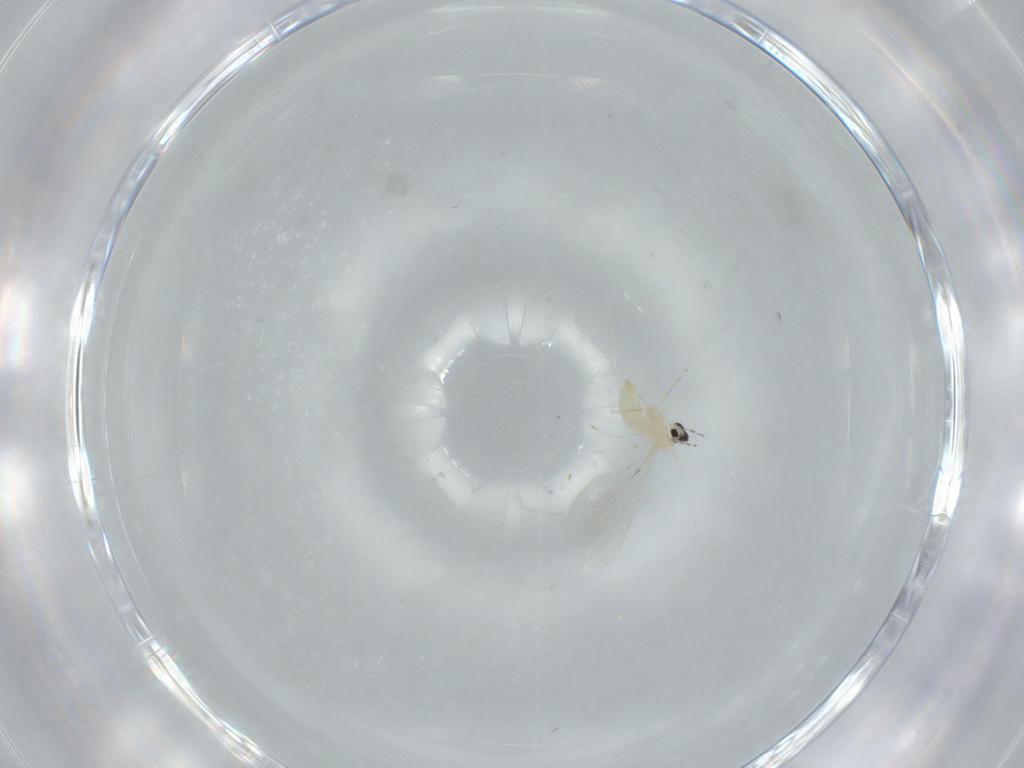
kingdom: Animalia
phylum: Arthropoda
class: Insecta
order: Diptera
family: Cecidomyiidae
